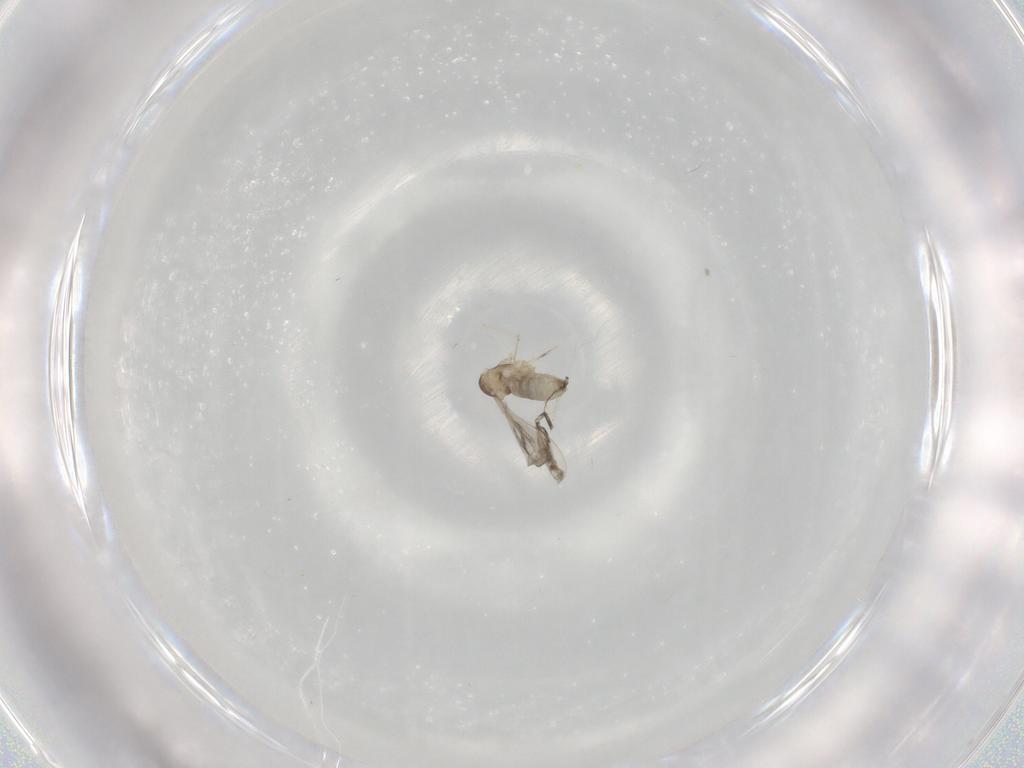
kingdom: Animalia
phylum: Arthropoda
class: Insecta
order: Diptera
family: Cecidomyiidae
